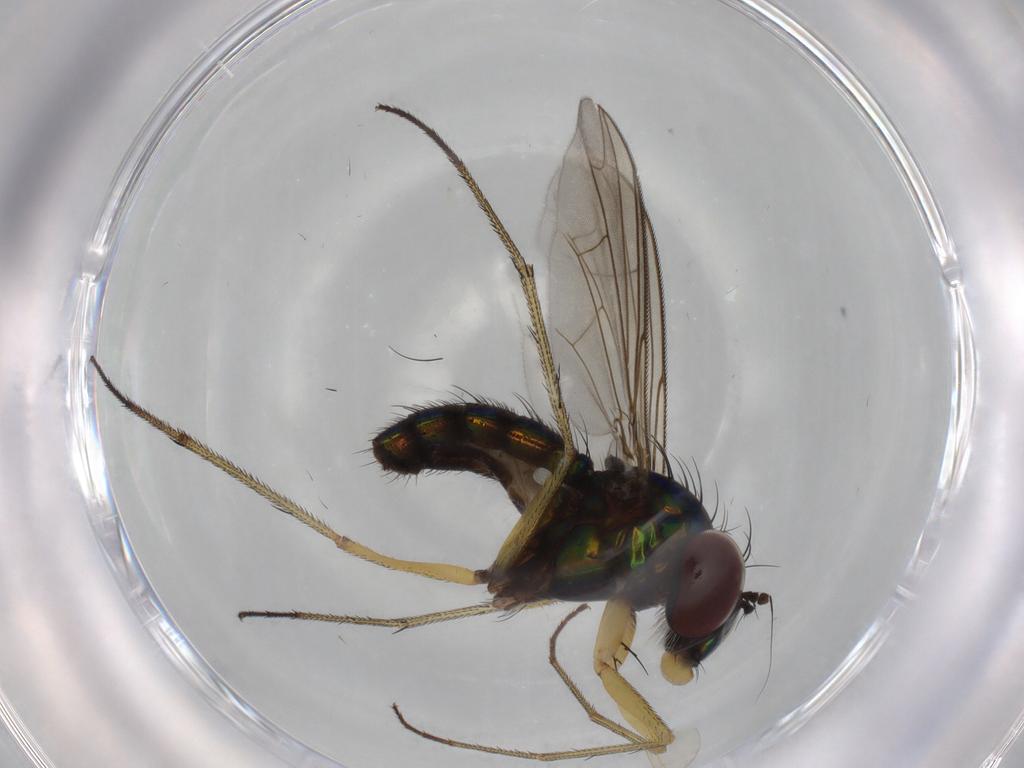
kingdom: Animalia
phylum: Arthropoda
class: Insecta
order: Diptera
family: Dolichopodidae
